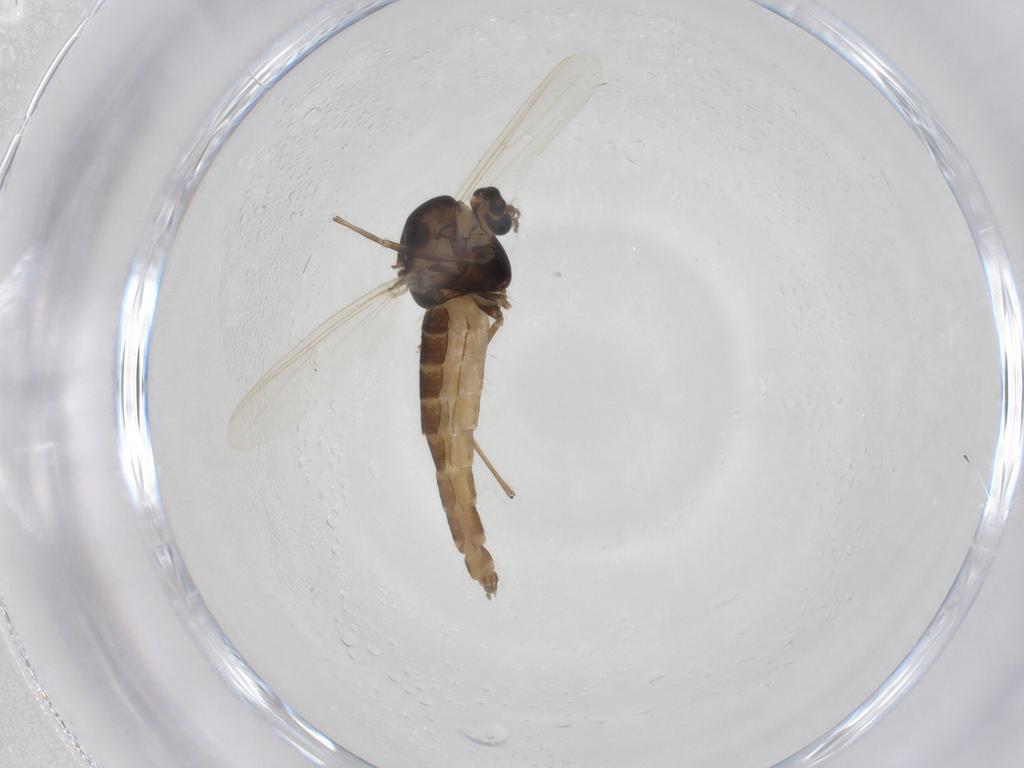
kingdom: Animalia
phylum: Arthropoda
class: Insecta
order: Diptera
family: Chironomidae
